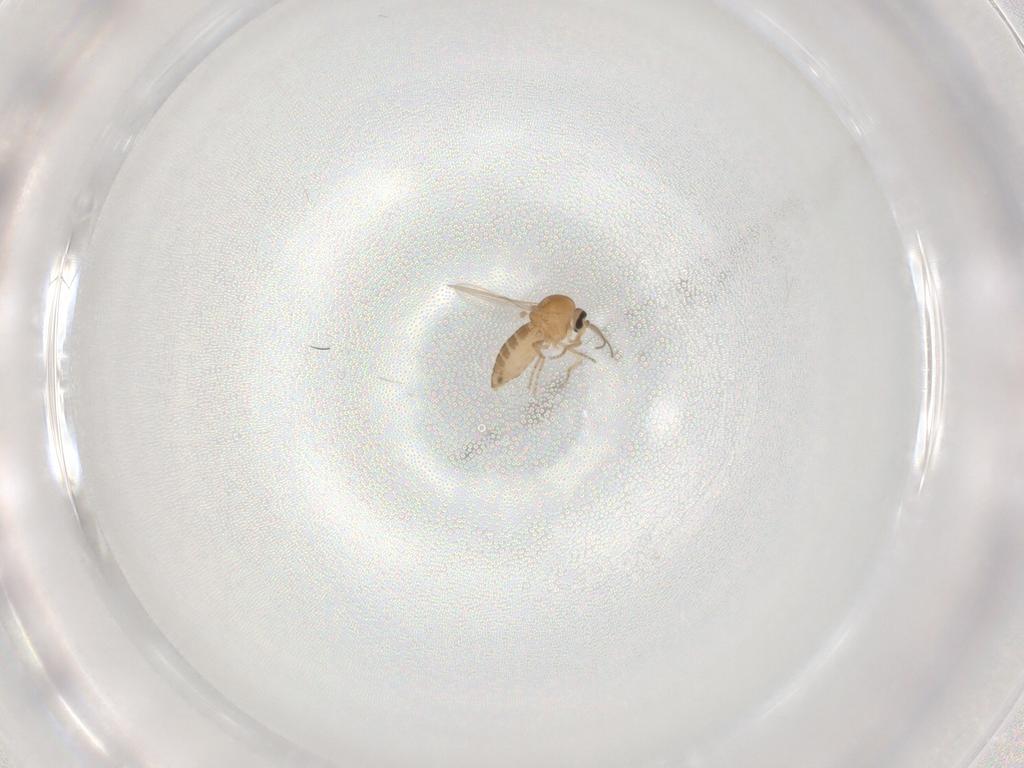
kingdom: Animalia
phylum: Arthropoda
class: Insecta
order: Diptera
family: Ceratopogonidae
